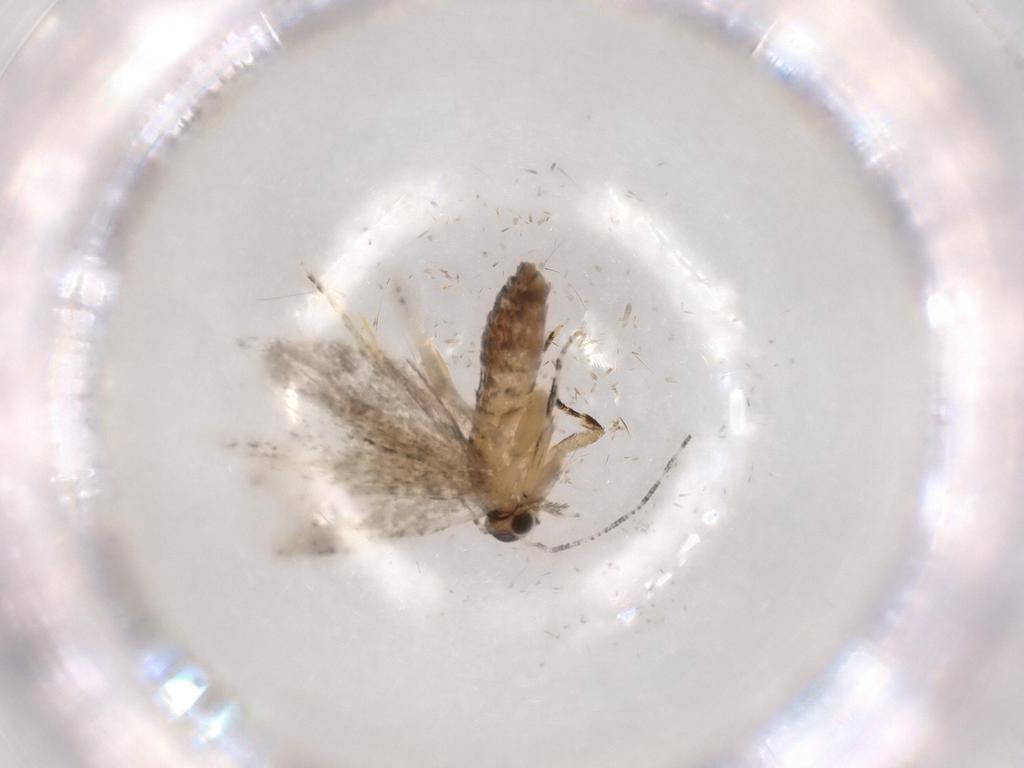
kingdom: Animalia
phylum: Arthropoda
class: Insecta
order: Lepidoptera
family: Tineidae
